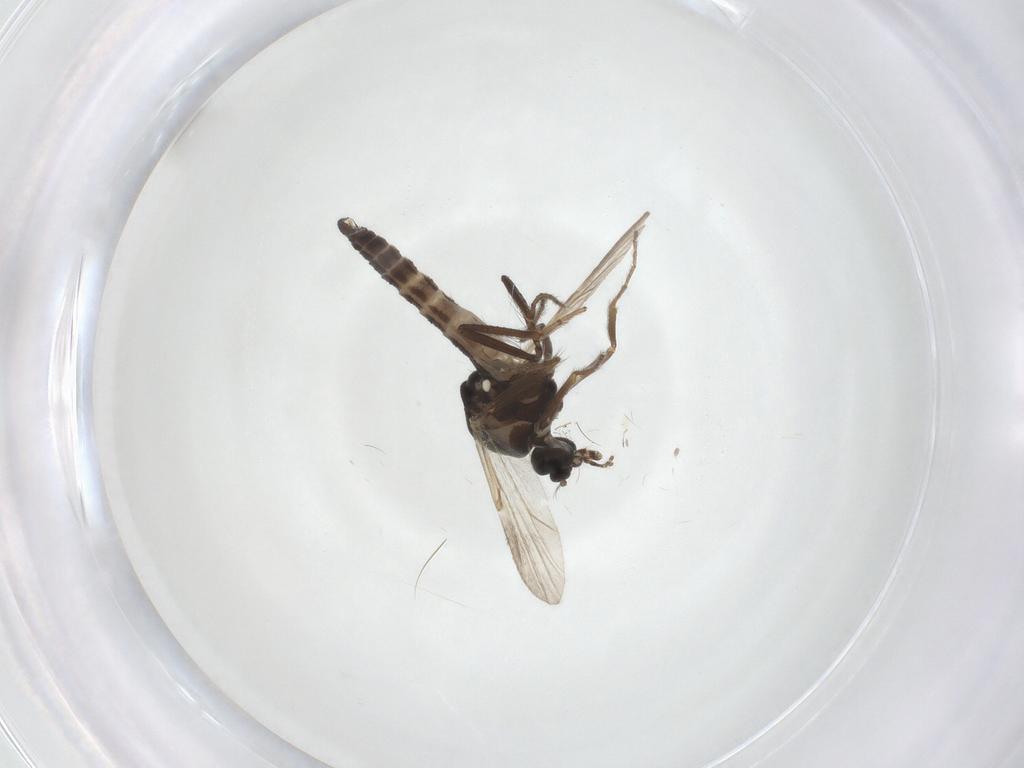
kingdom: Animalia
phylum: Arthropoda
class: Insecta
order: Diptera
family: Ceratopogonidae
